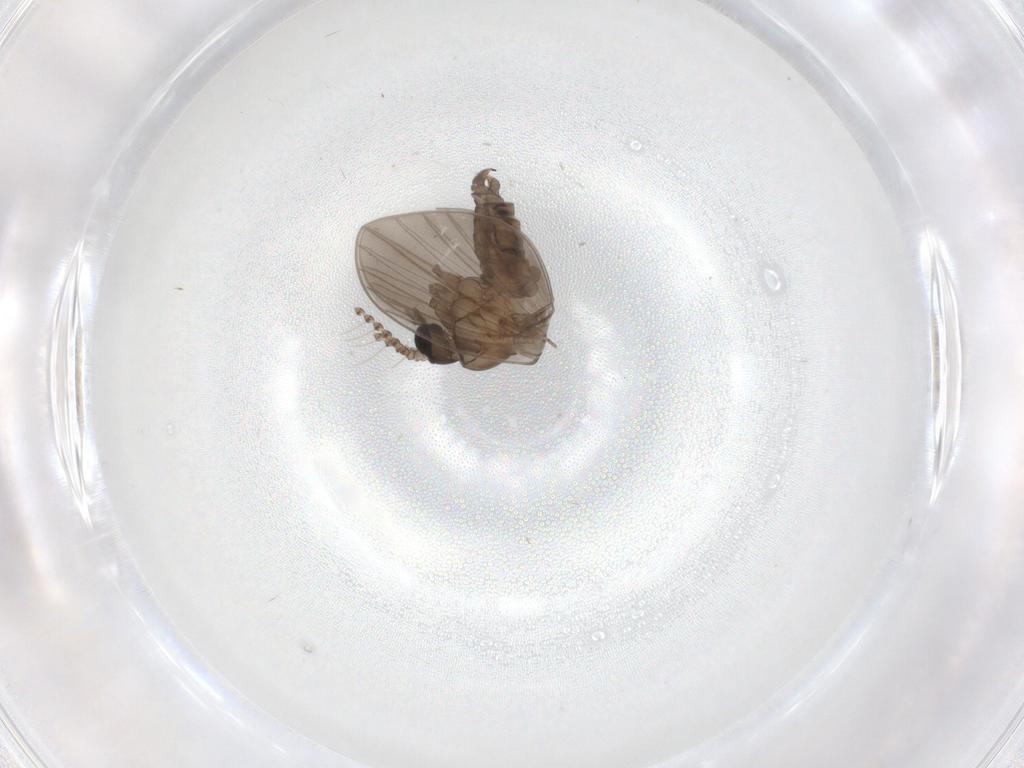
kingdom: Animalia
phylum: Arthropoda
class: Insecta
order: Diptera
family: Psychodidae
